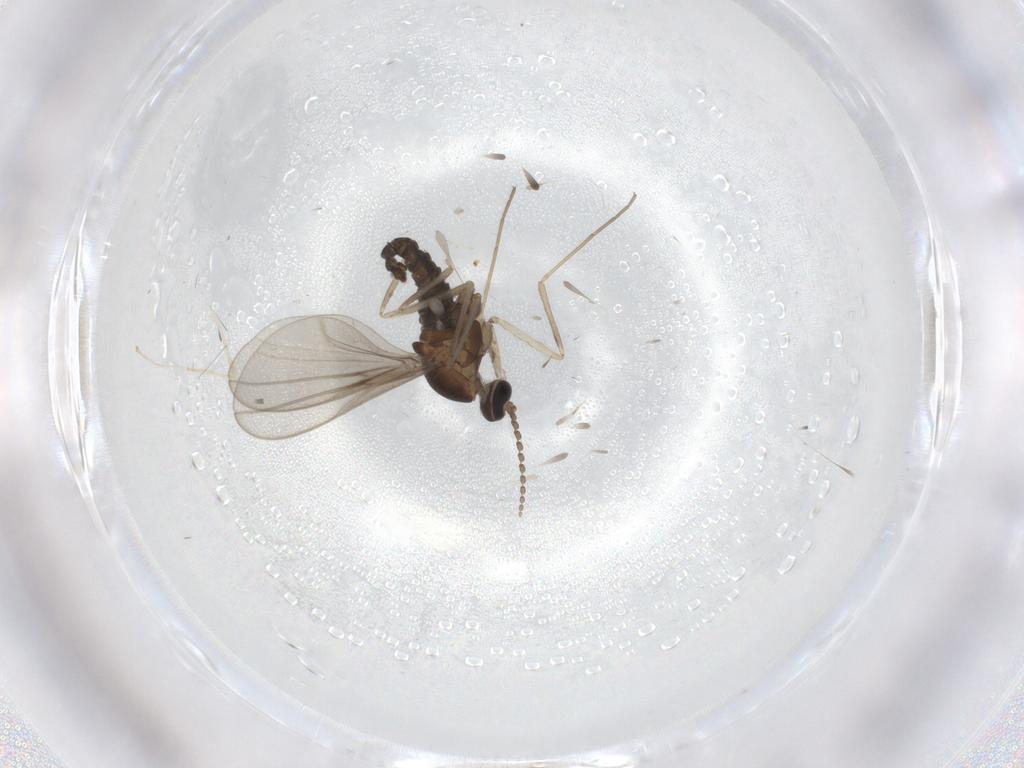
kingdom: Animalia
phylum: Arthropoda
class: Insecta
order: Diptera
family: Cecidomyiidae
